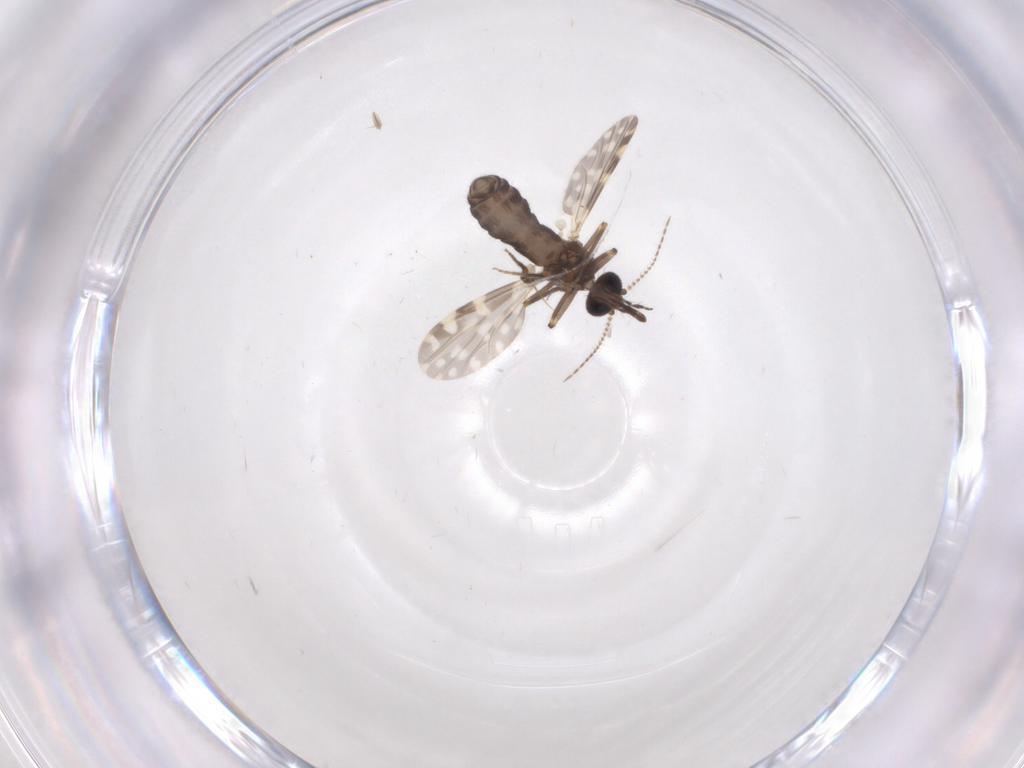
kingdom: Animalia
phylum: Arthropoda
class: Insecta
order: Diptera
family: Ceratopogonidae
